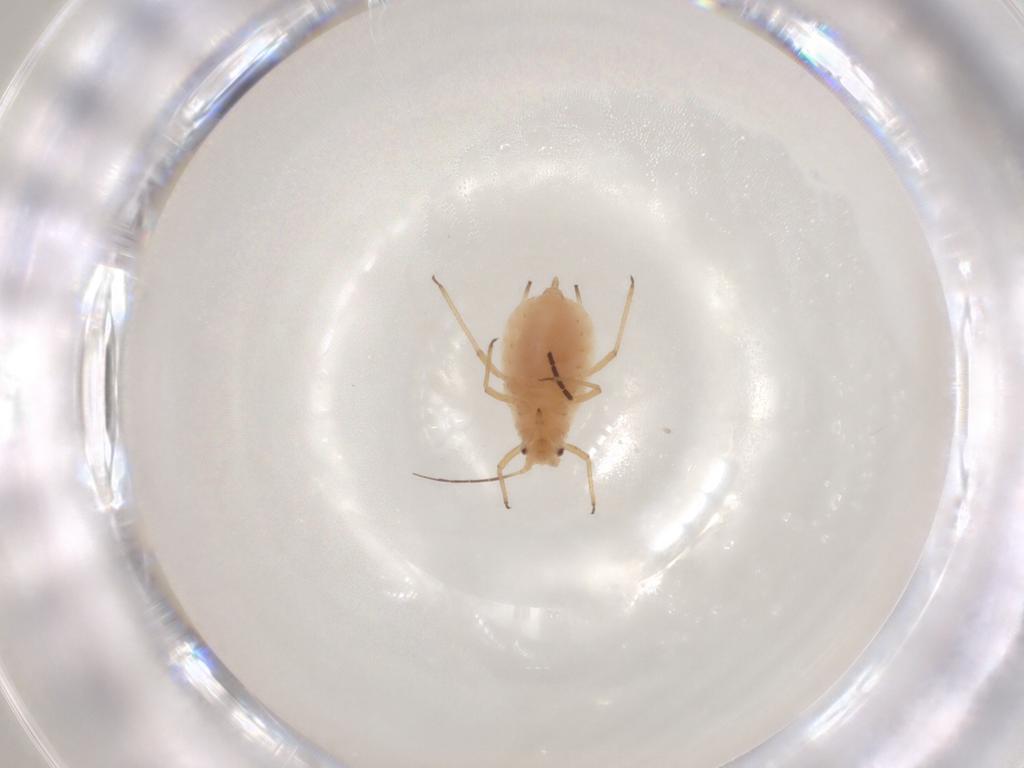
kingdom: Animalia
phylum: Arthropoda
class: Insecta
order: Hemiptera
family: Aphididae
